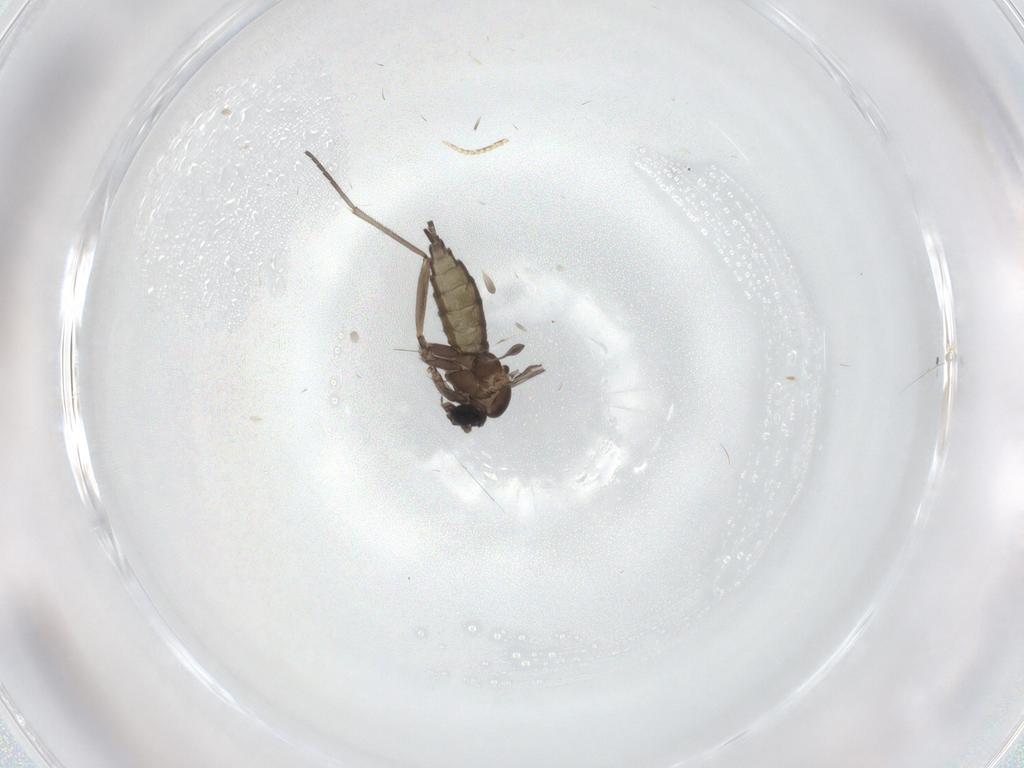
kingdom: Animalia
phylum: Arthropoda
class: Insecta
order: Diptera
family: Sciaridae
